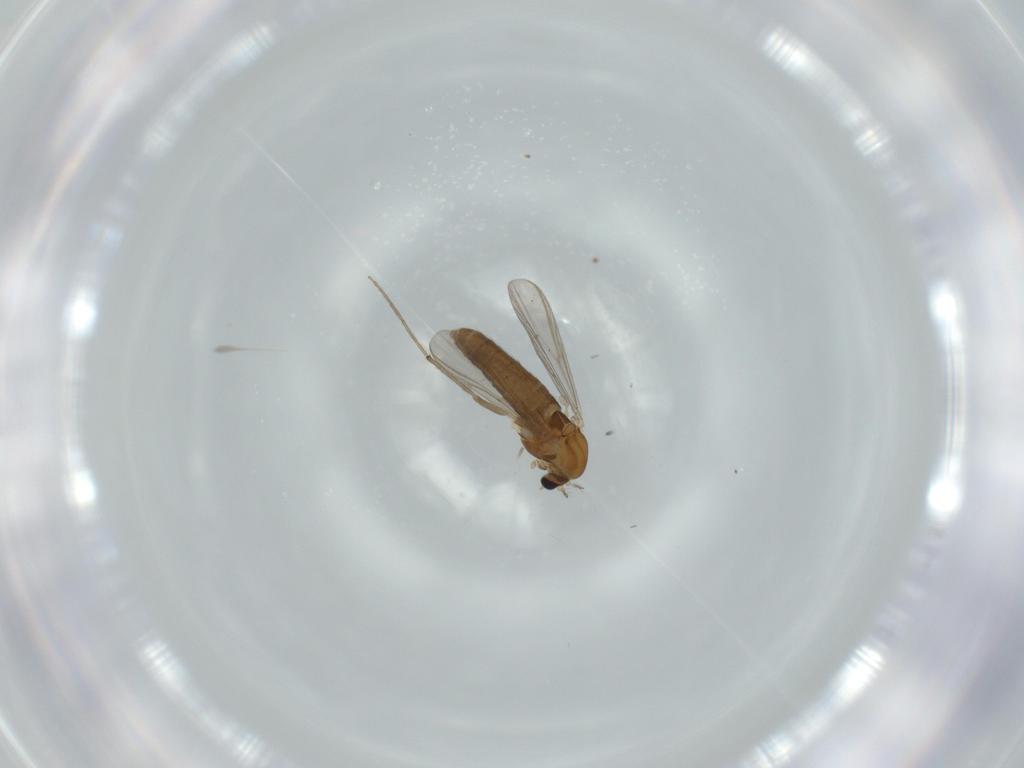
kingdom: Animalia
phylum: Arthropoda
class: Insecta
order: Diptera
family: Chironomidae
